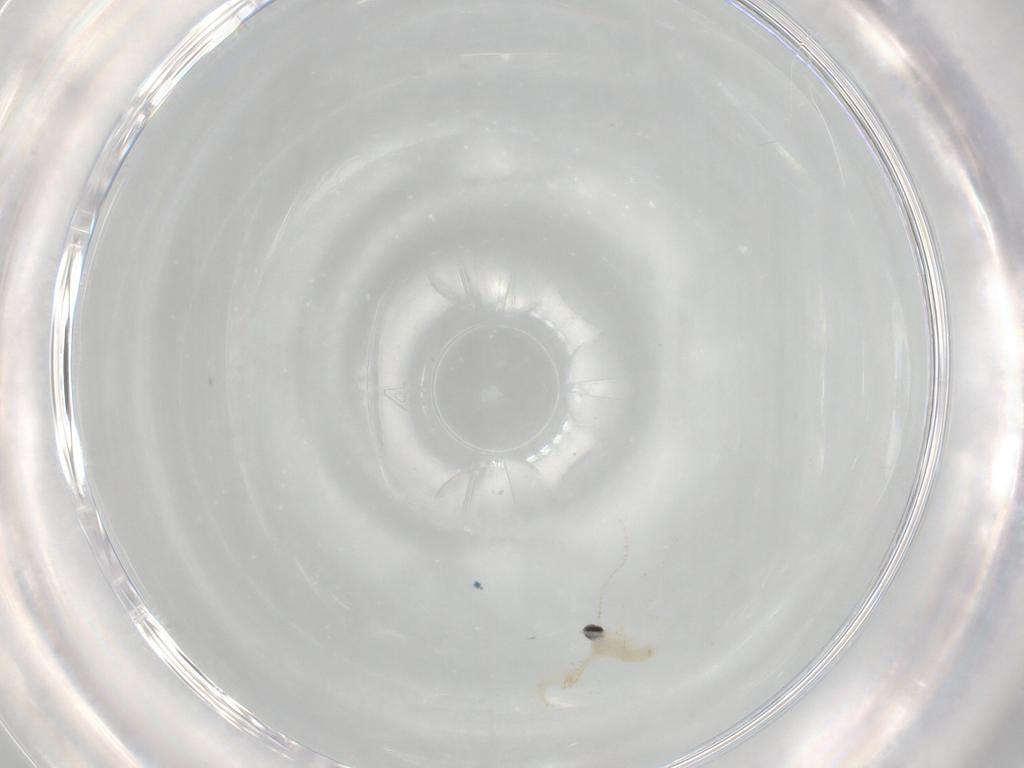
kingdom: Animalia
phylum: Arthropoda
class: Insecta
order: Diptera
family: Cecidomyiidae
